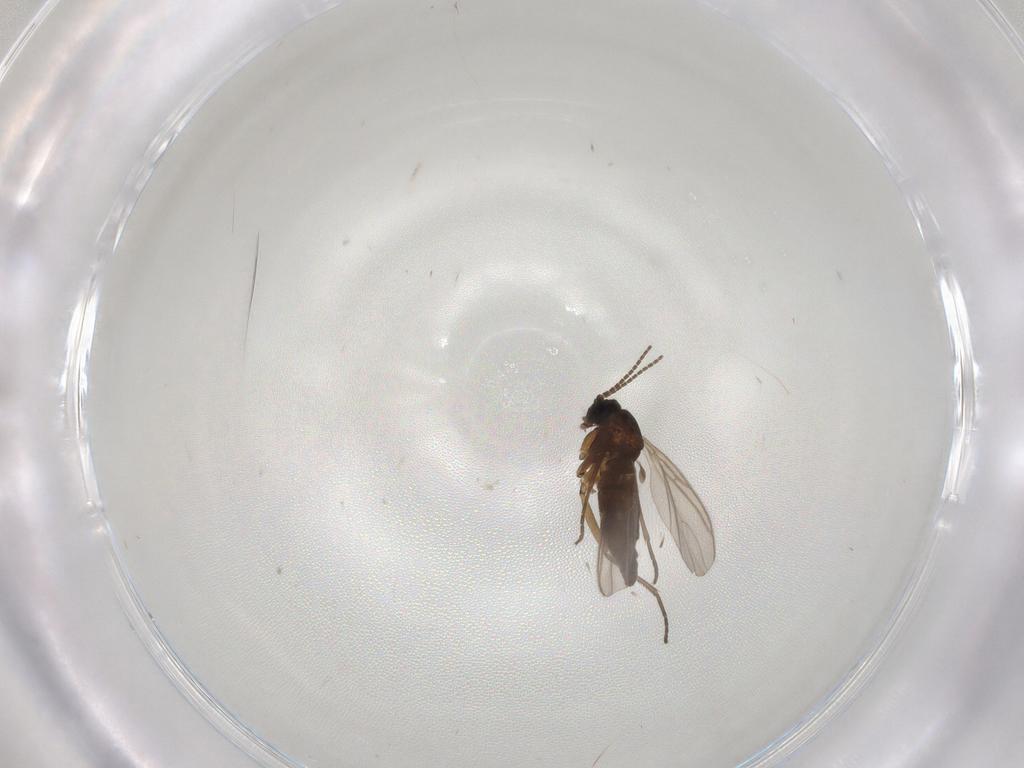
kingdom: Animalia
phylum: Arthropoda
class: Insecta
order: Diptera
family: Sciaridae
